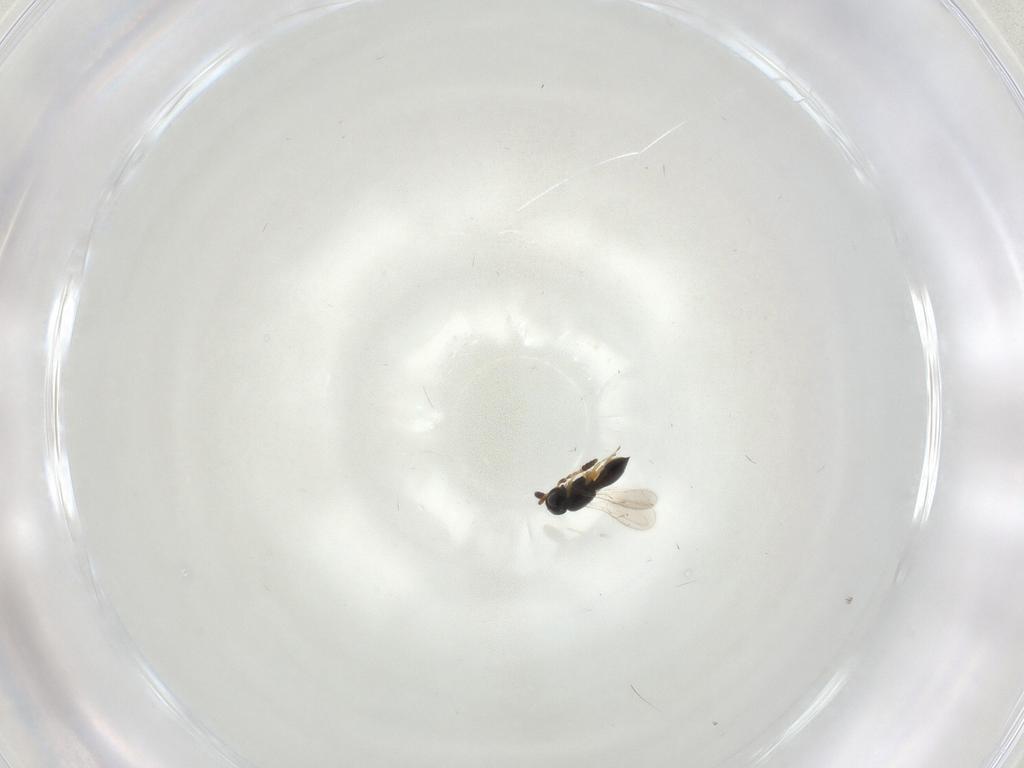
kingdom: Animalia
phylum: Arthropoda
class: Insecta
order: Hymenoptera
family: Scelionidae
